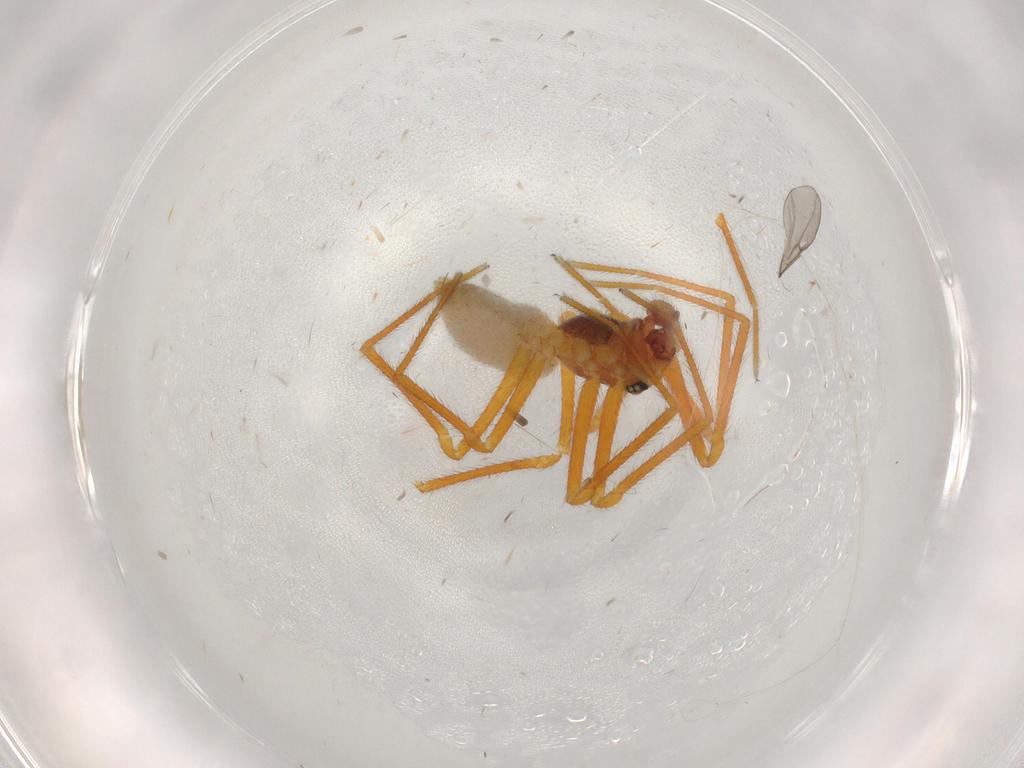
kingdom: Animalia
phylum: Arthropoda
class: Arachnida
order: Araneae
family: Linyphiidae
